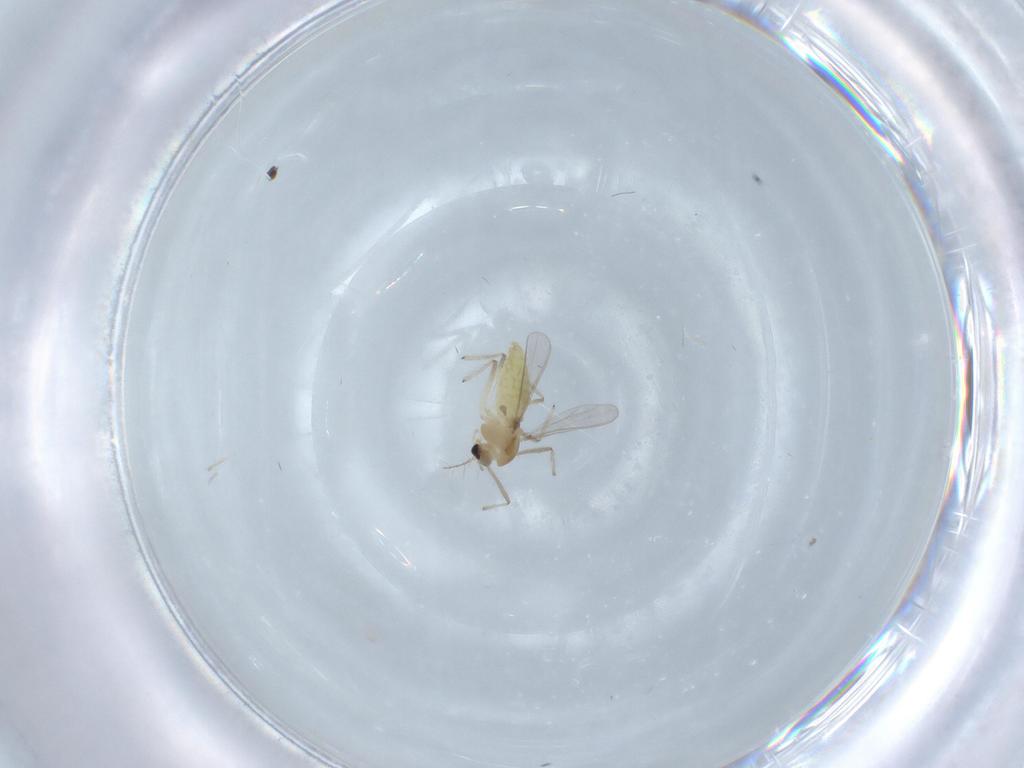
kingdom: Animalia
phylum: Arthropoda
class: Insecta
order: Diptera
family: Chironomidae
